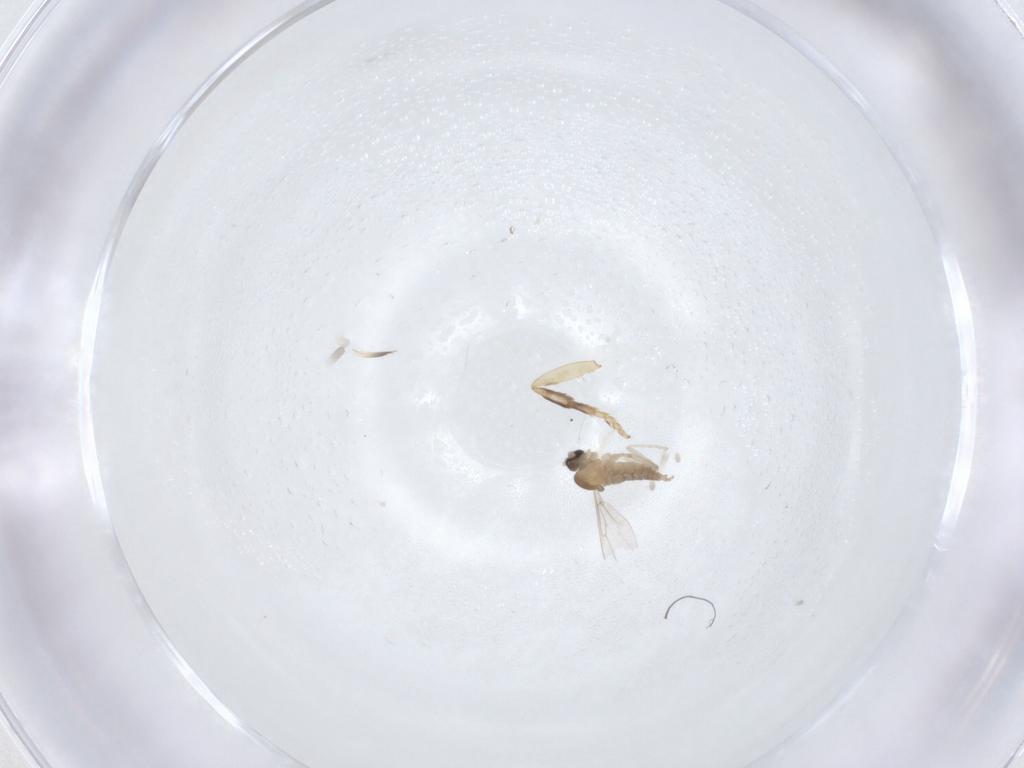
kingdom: Animalia
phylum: Arthropoda
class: Insecta
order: Diptera
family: Cecidomyiidae
